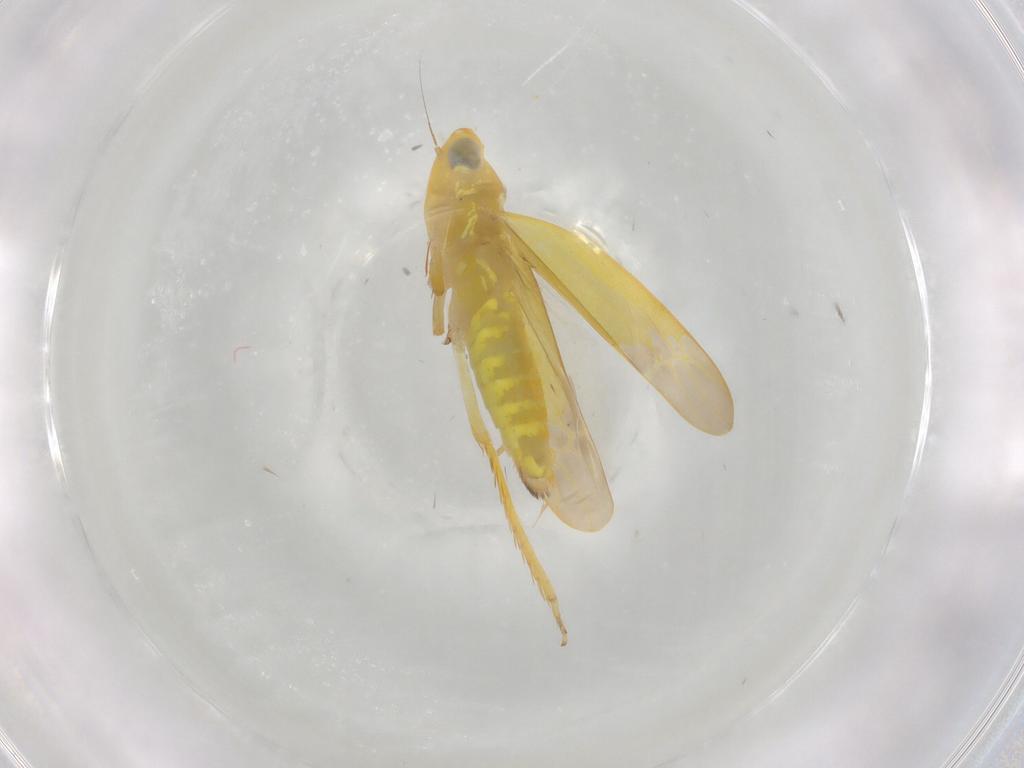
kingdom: Animalia
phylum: Arthropoda
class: Insecta
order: Hemiptera
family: Cicadellidae
